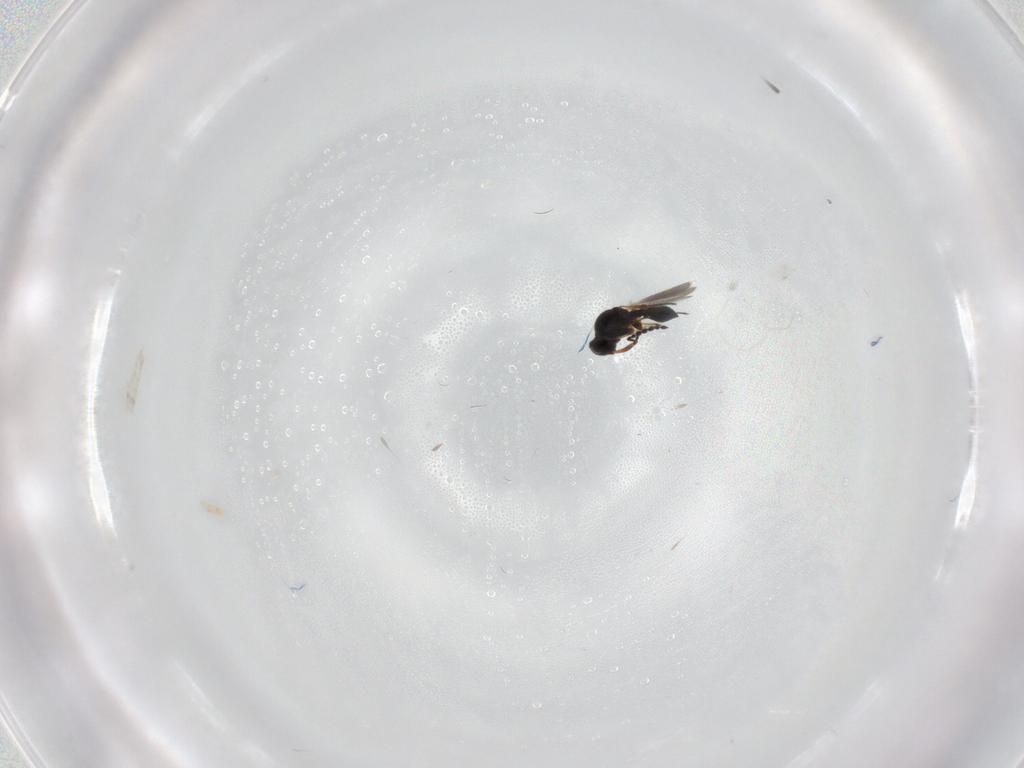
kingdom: Animalia
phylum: Arthropoda
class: Insecta
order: Hymenoptera
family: Platygastridae
